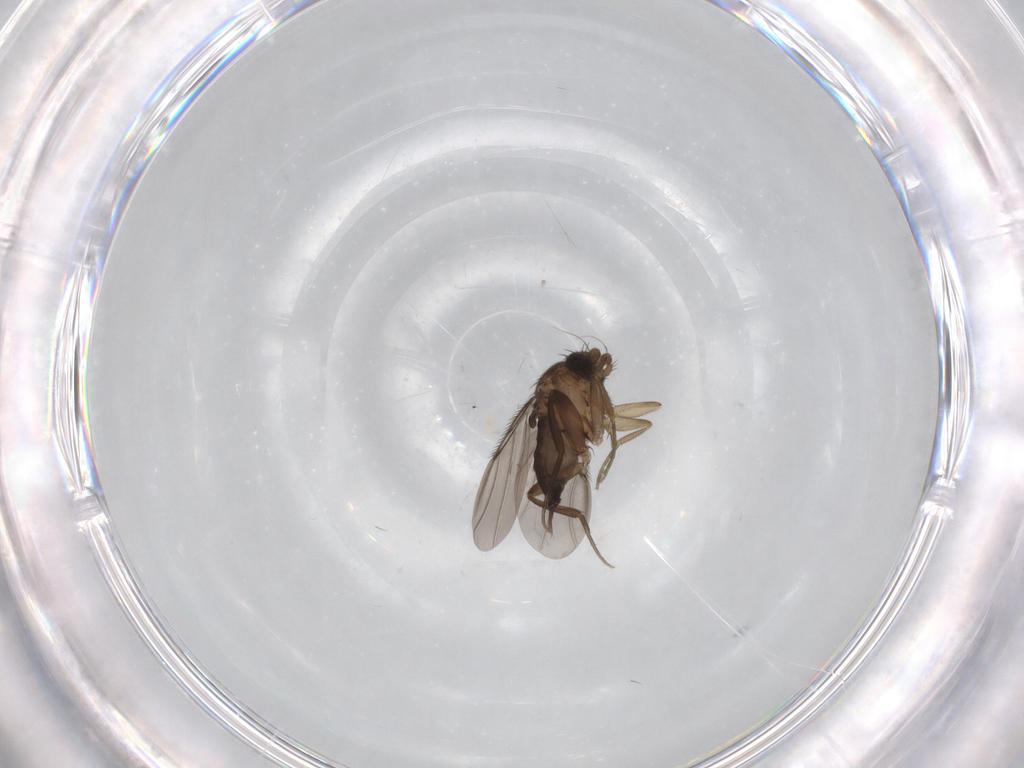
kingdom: Animalia
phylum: Arthropoda
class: Insecta
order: Diptera
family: Phoridae
